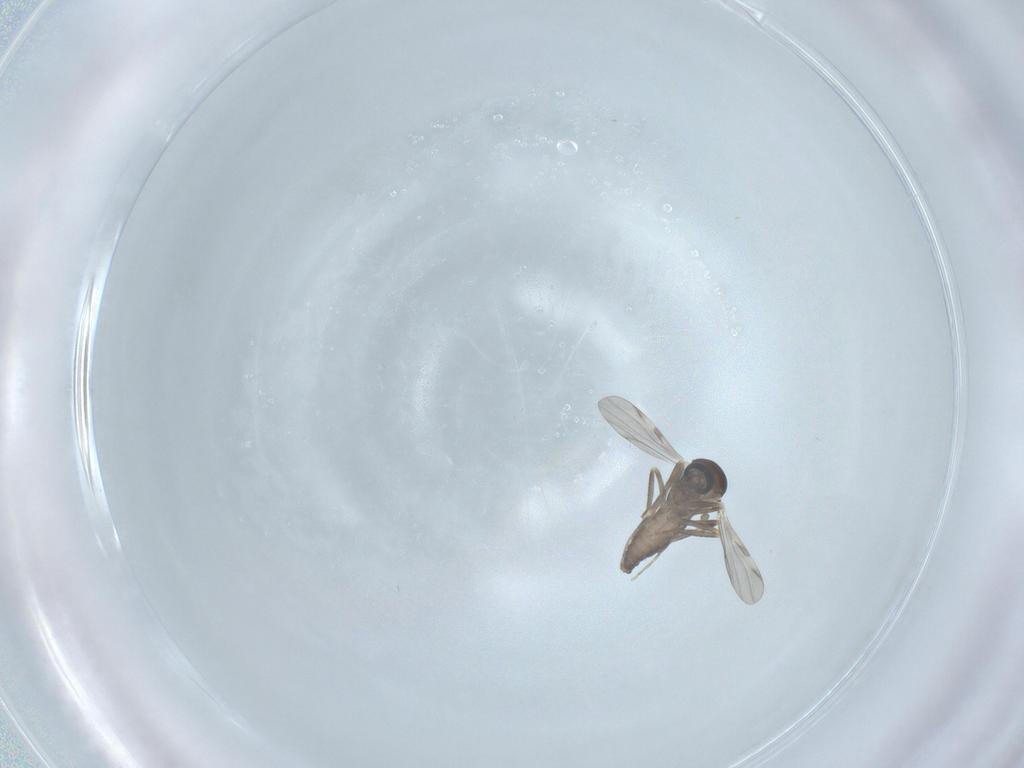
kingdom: Animalia
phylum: Arthropoda
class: Insecta
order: Diptera
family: Ceratopogonidae
